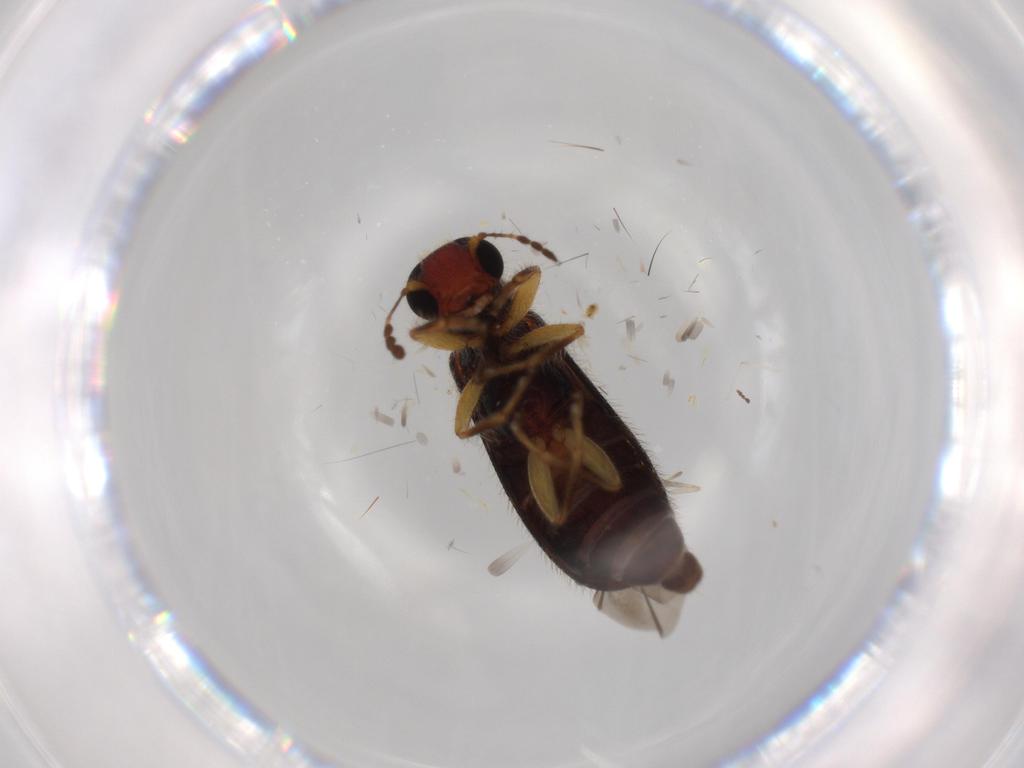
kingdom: Animalia
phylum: Arthropoda
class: Insecta
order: Coleoptera
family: Cleridae
